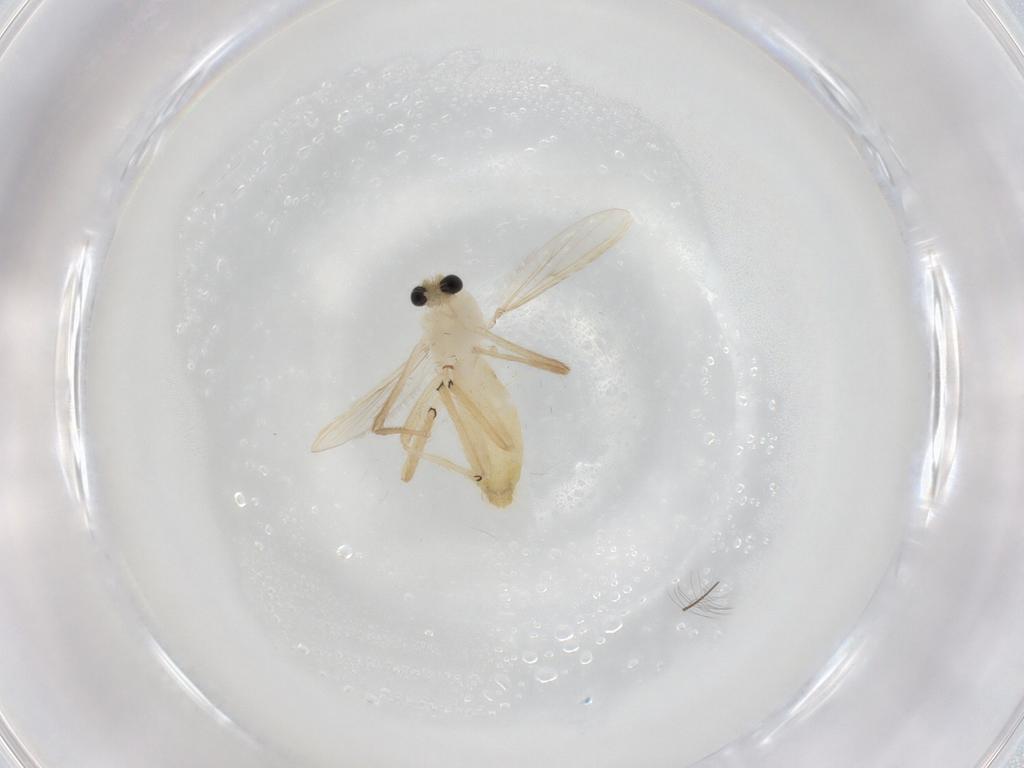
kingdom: Animalia
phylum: Arthropoda
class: Insecta
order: Diptera
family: Chironomidae
